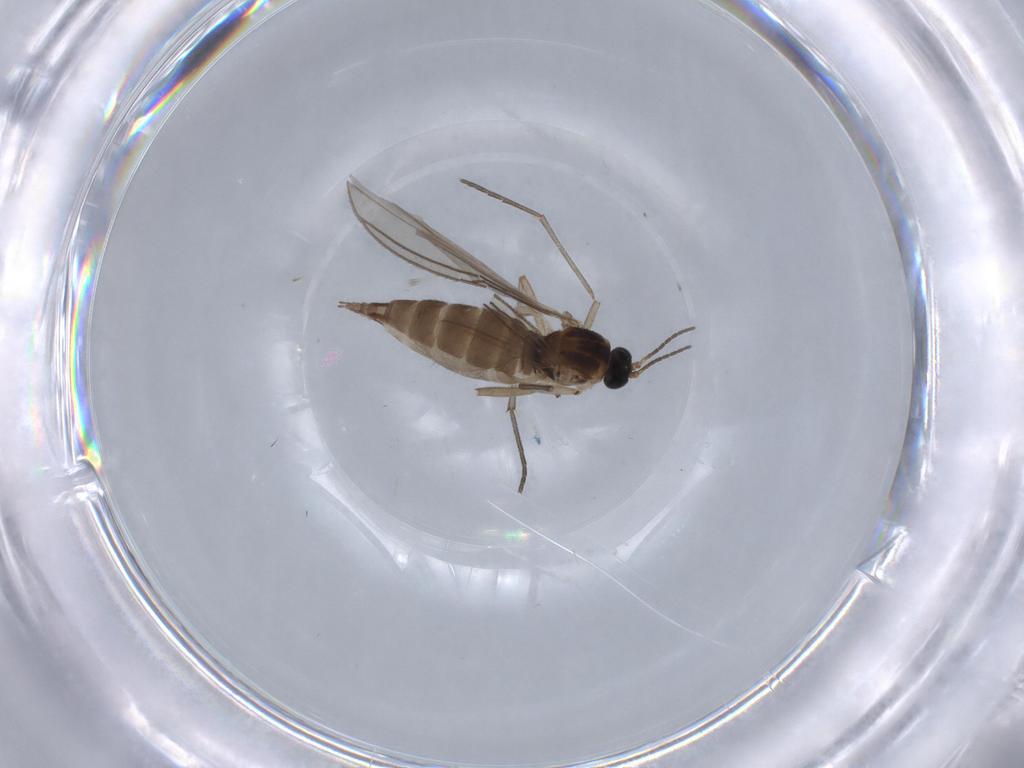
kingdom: Animalia
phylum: Arthropoda
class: Insecta
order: Diptera
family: Sciaridae
